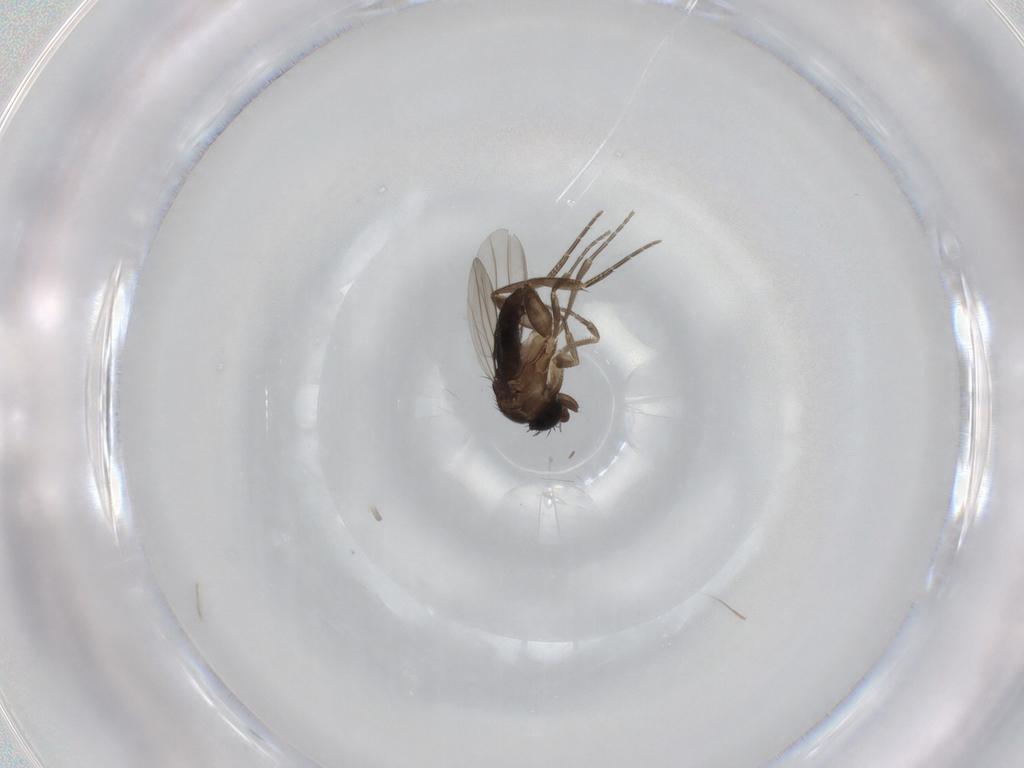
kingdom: Animalia
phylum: Arthropoda
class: Insecta
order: Diptera
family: Phoridae
